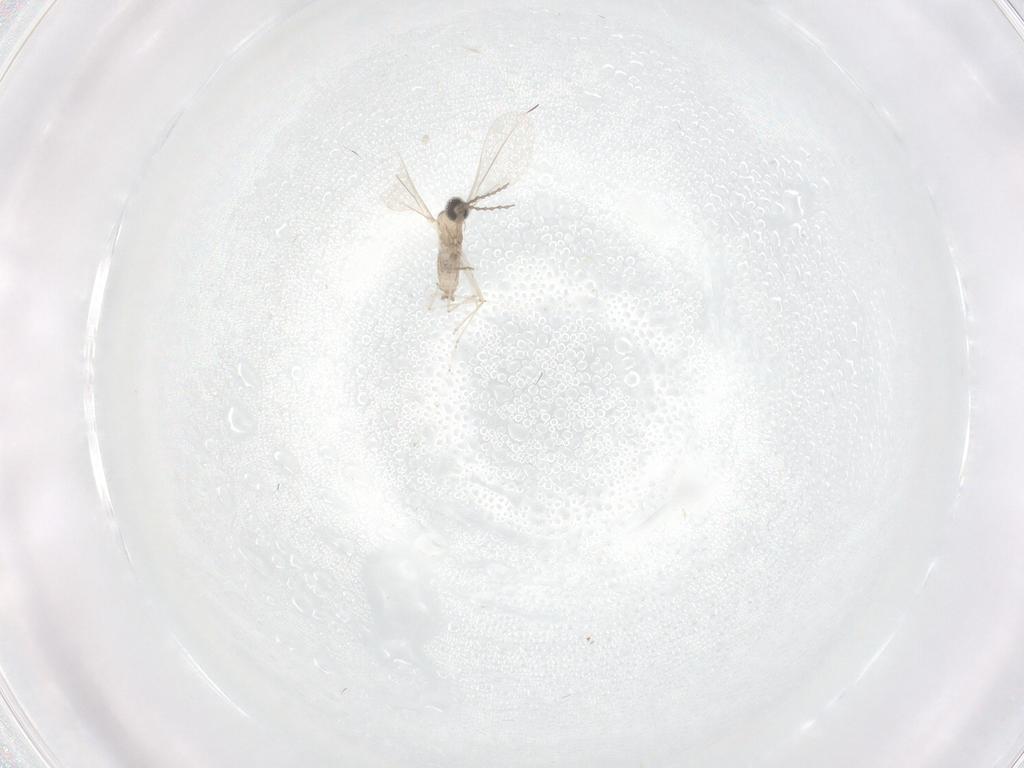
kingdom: Animalia
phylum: Arthropoda
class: Insecta
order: Diptera
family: Cecidomyiidae
